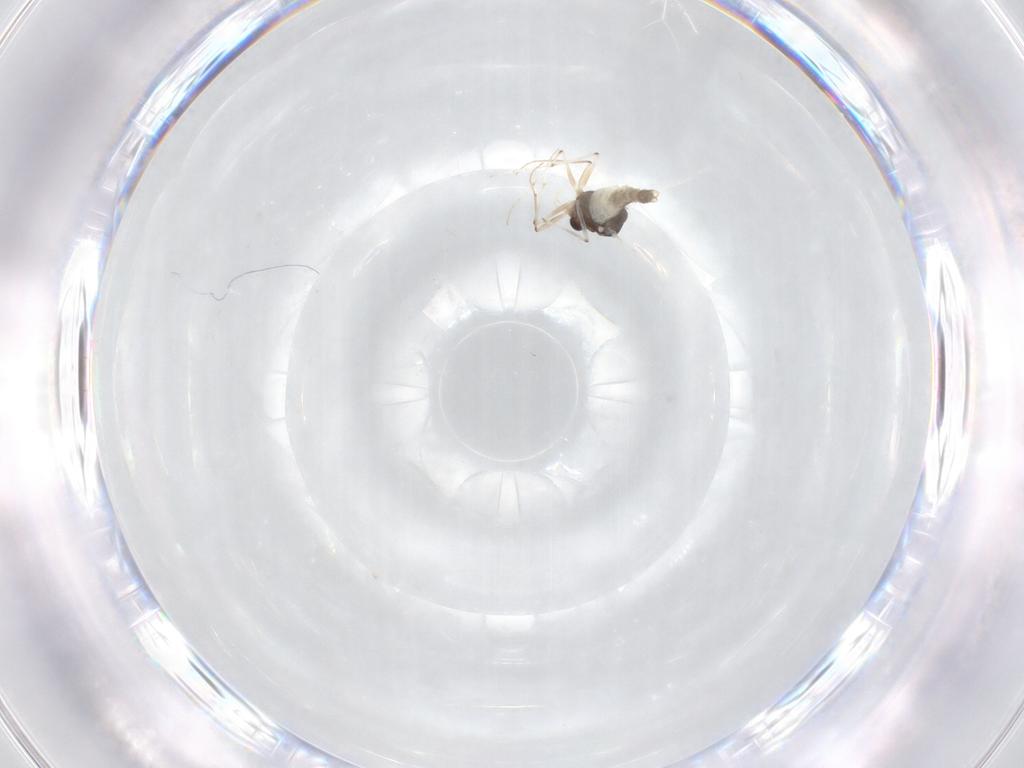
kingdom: Animalia
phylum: Arthropoda
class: Insecta
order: Diptera
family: Chironomidae
